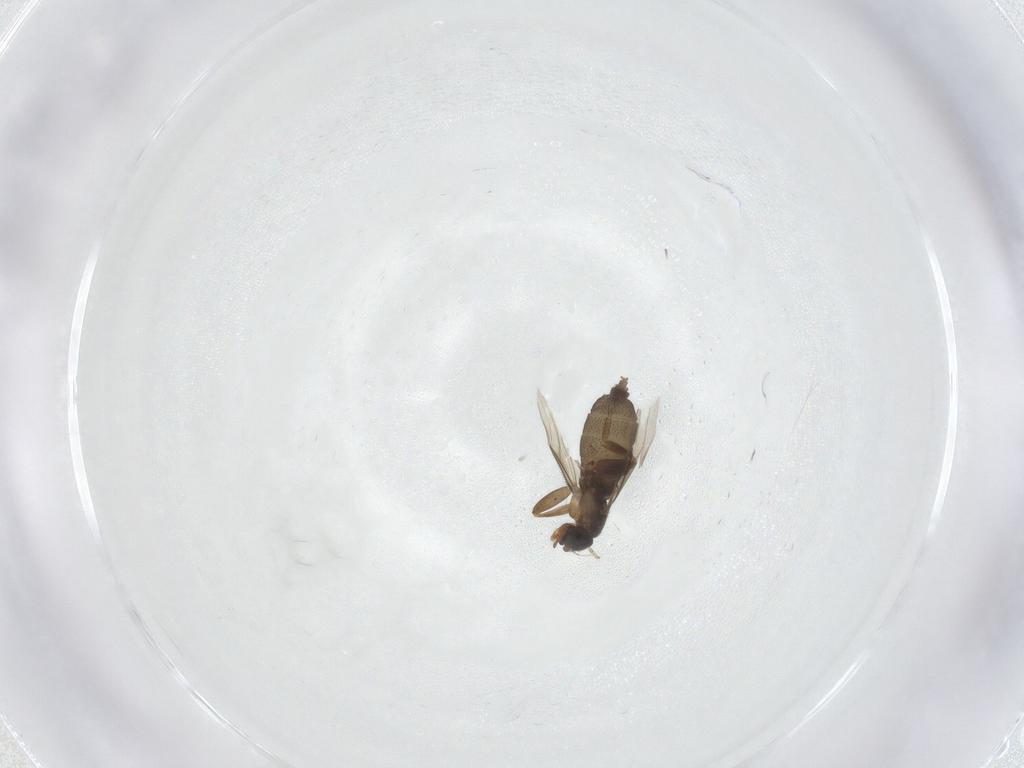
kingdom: Animalia
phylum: Arthropoda
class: Insecta
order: Diptera
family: Phoridae
